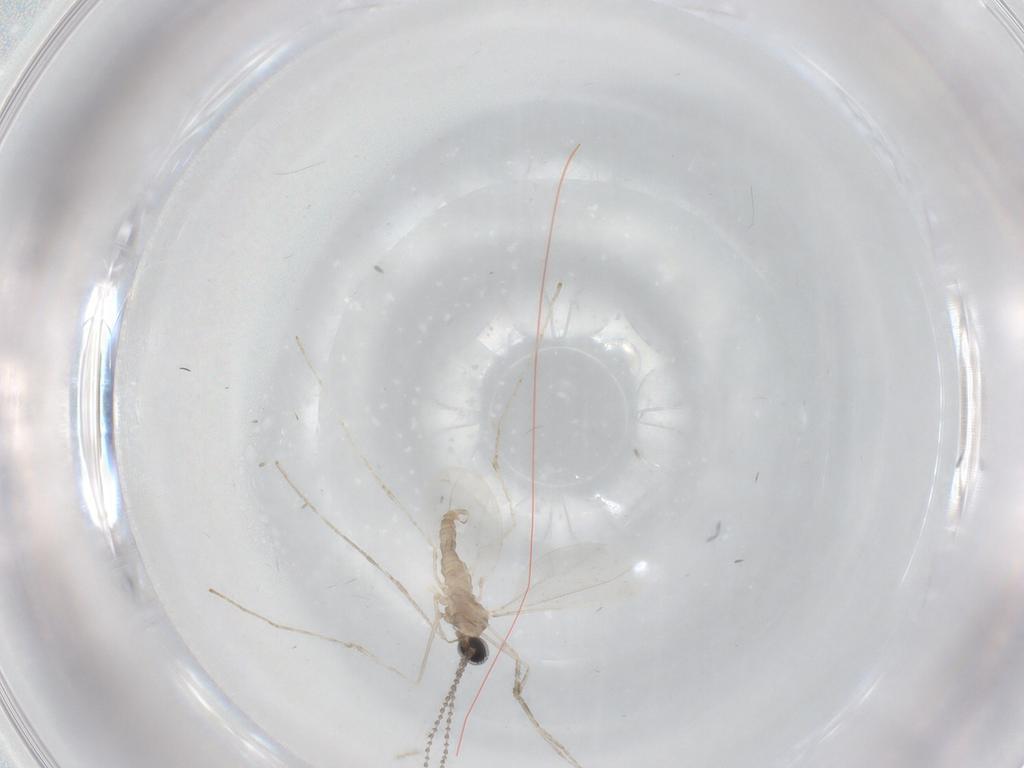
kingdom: Animalia
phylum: Arthropoda
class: Insecta
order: Diptera
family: Cecidomyiidae
